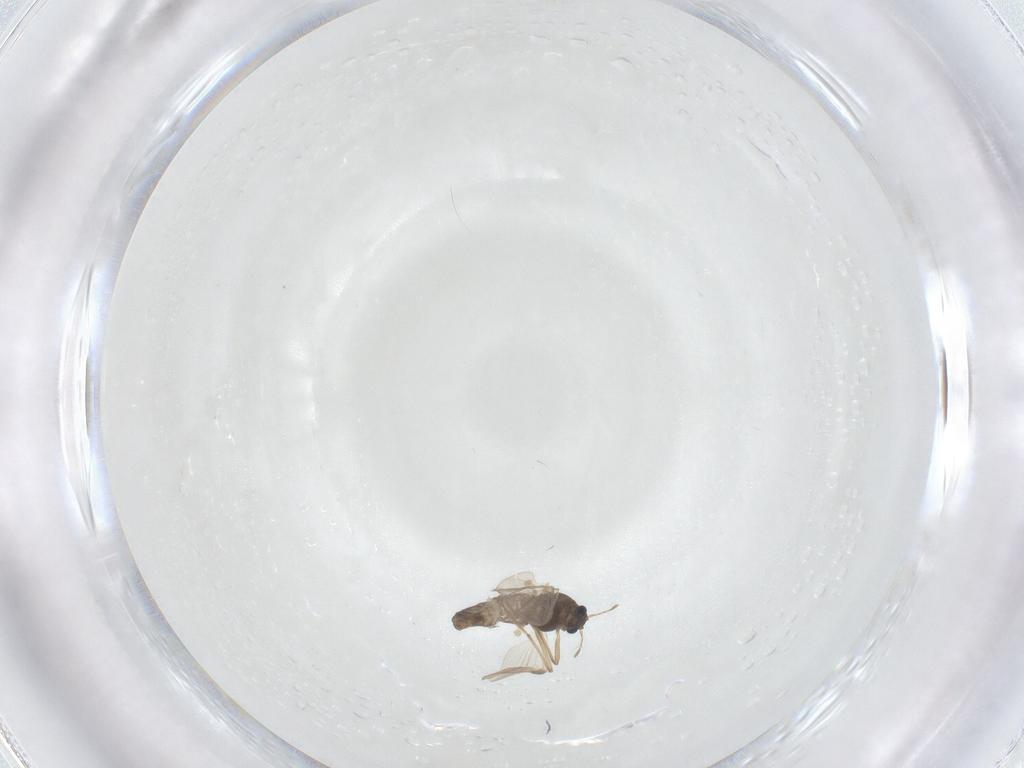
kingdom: Animalia
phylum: Arthropoda
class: Insecta
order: Diptera
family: Chironomidae
